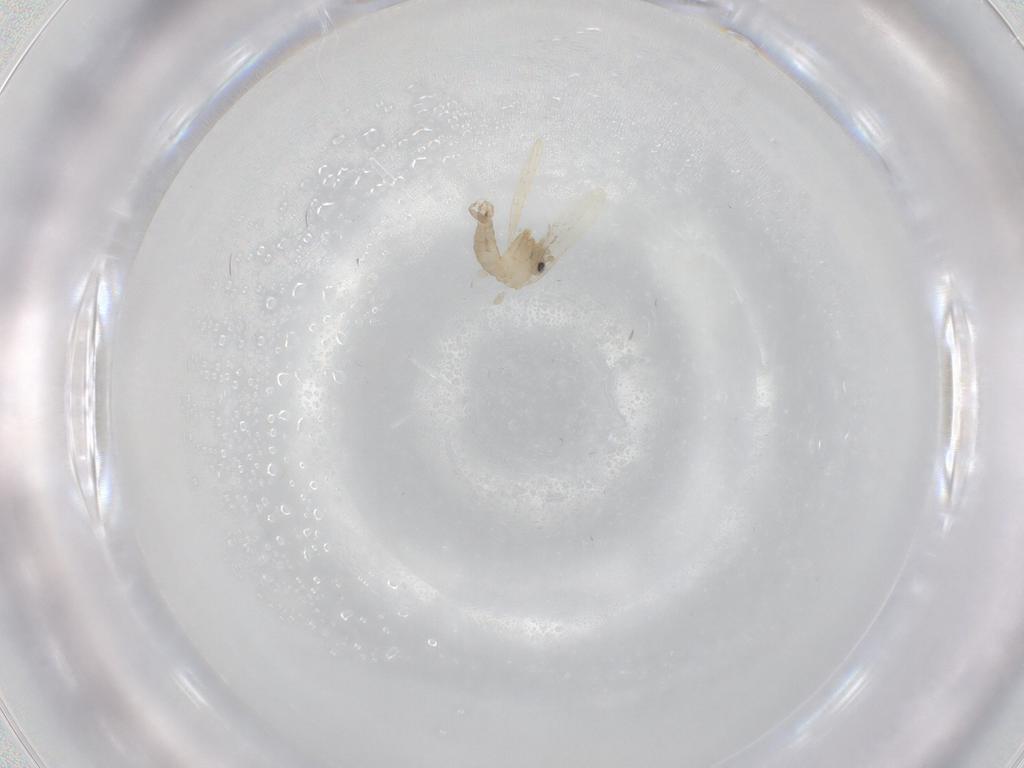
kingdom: Animalia
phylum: Arthropoda
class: Insecta
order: Diptera
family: Psychodidae
